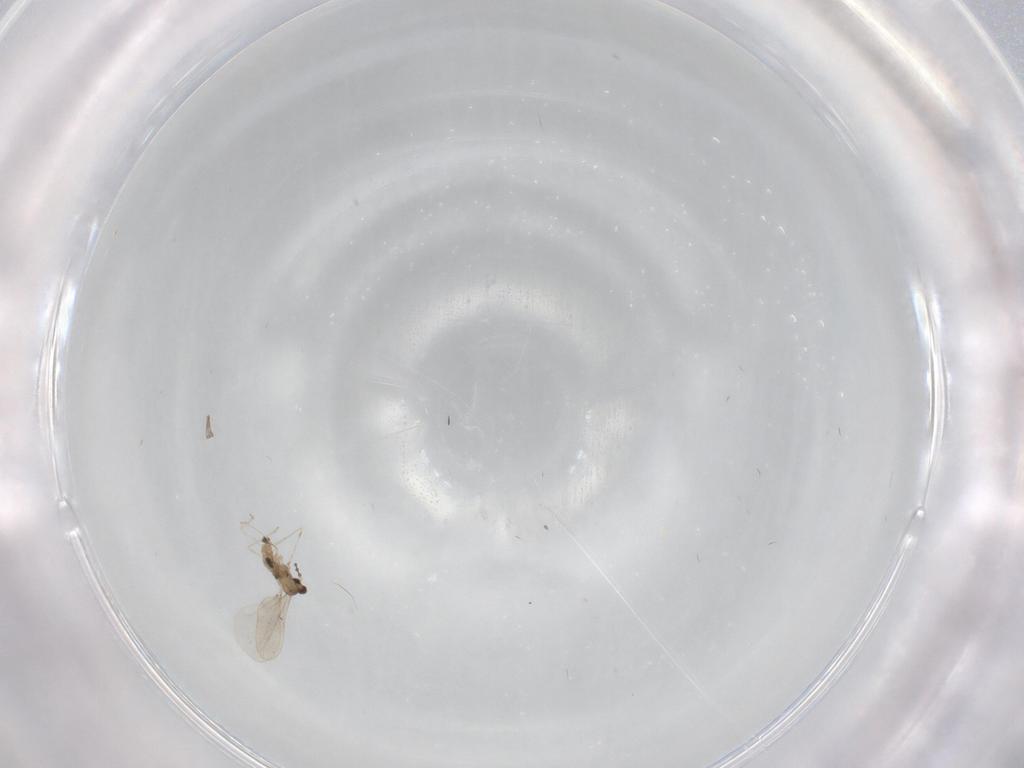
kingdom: Animalia
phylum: Arthropoda
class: Insecta
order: Diptera
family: Cecidomyiidae
